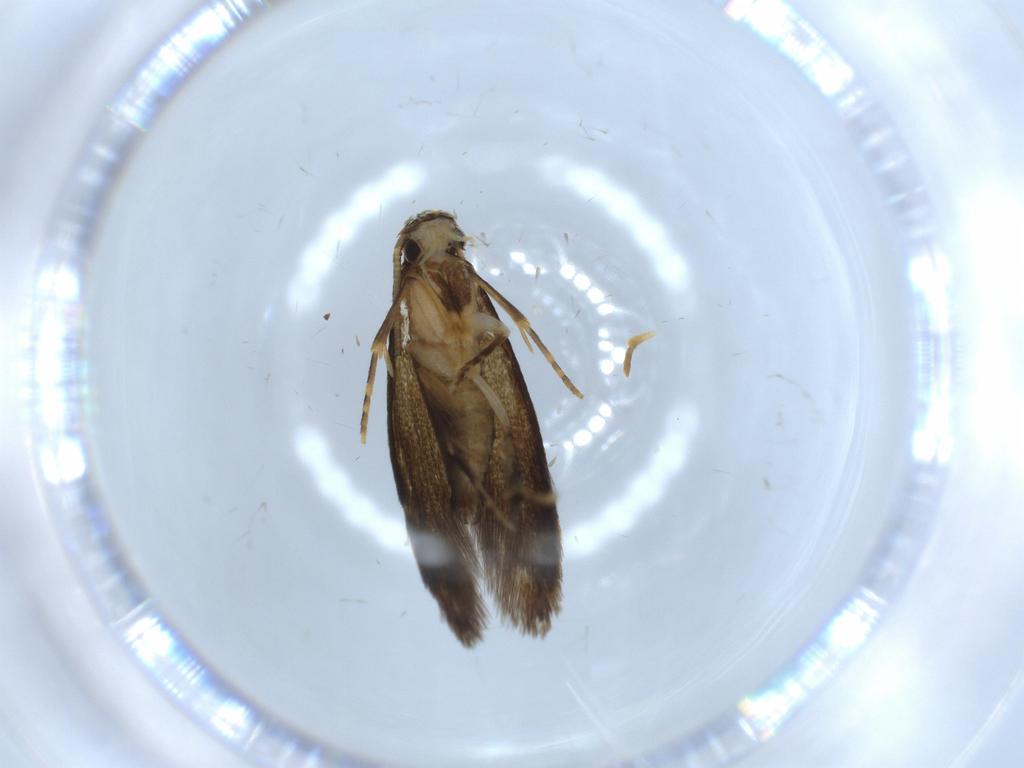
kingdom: Animalia
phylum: Arthropoda
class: Insecta
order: Lepidoptera
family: Tineidae
